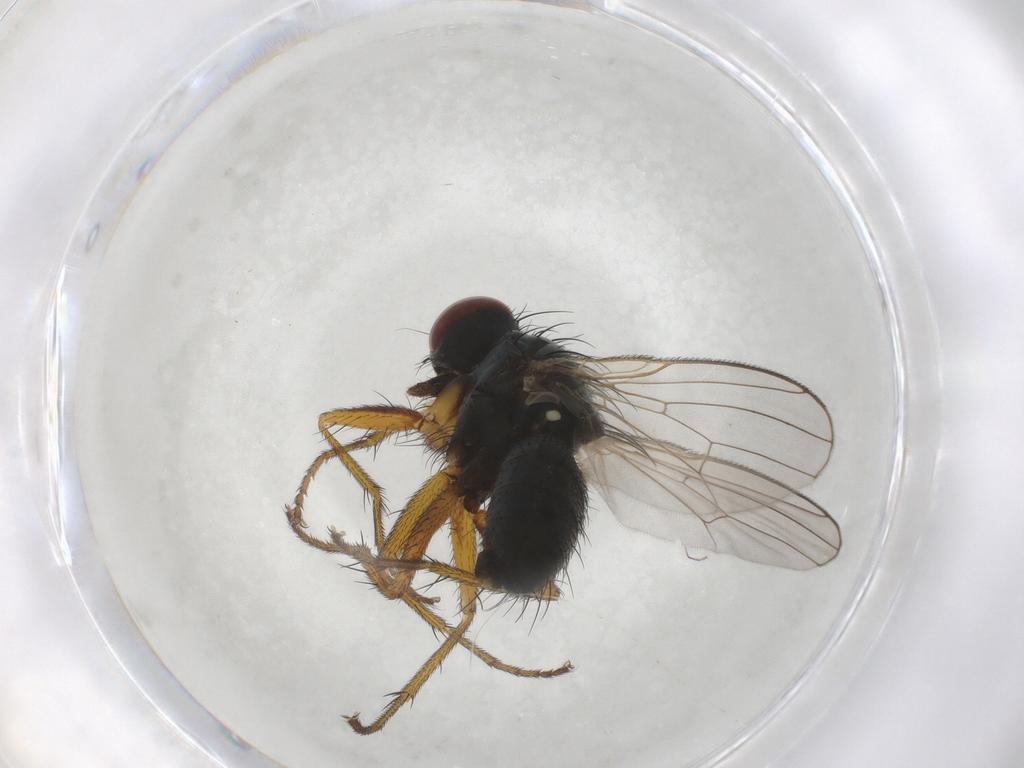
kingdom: Animalia
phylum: Arthropoda
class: Insecta
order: Diptera
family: Muscidae
